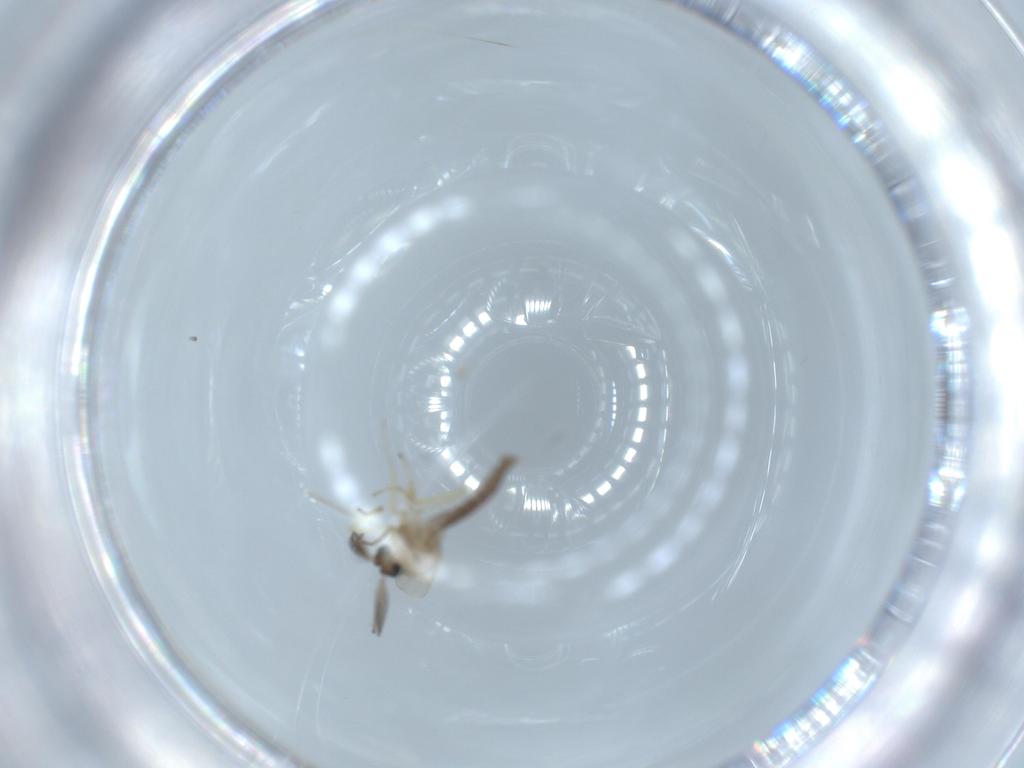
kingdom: Animalia
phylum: Arthropoda
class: Insecta
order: Diptera
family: Ceratopogonidae
